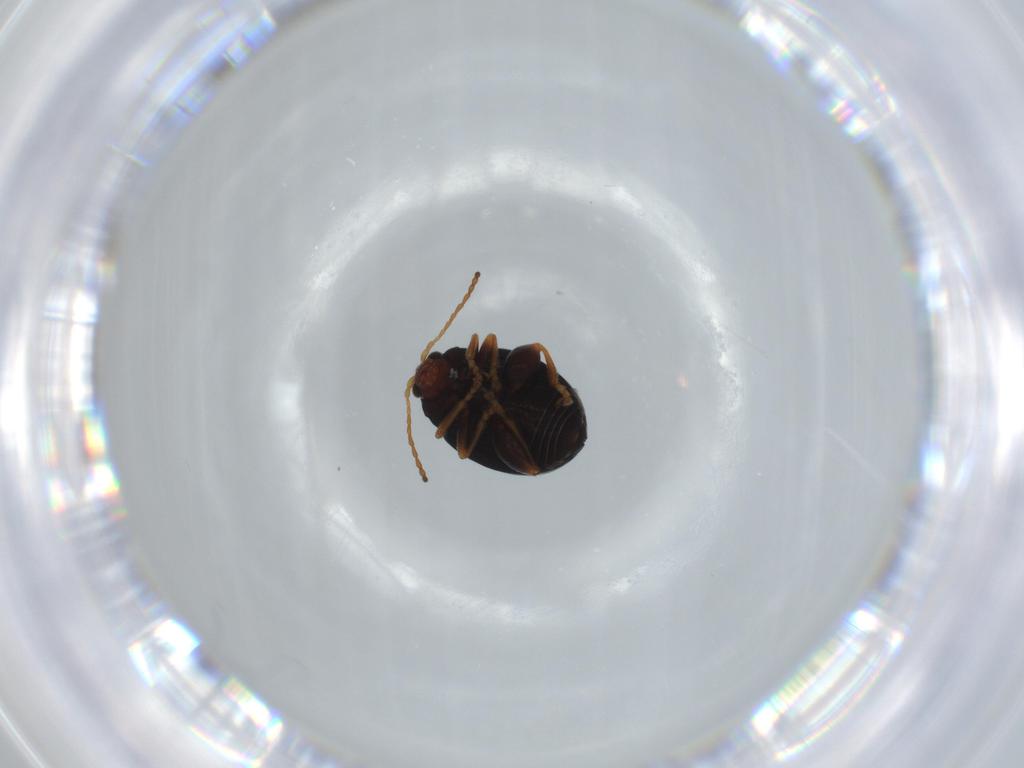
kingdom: Animalia
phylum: Arthropoda
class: Insecta
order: Coleoptera
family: Chrysomelidae
